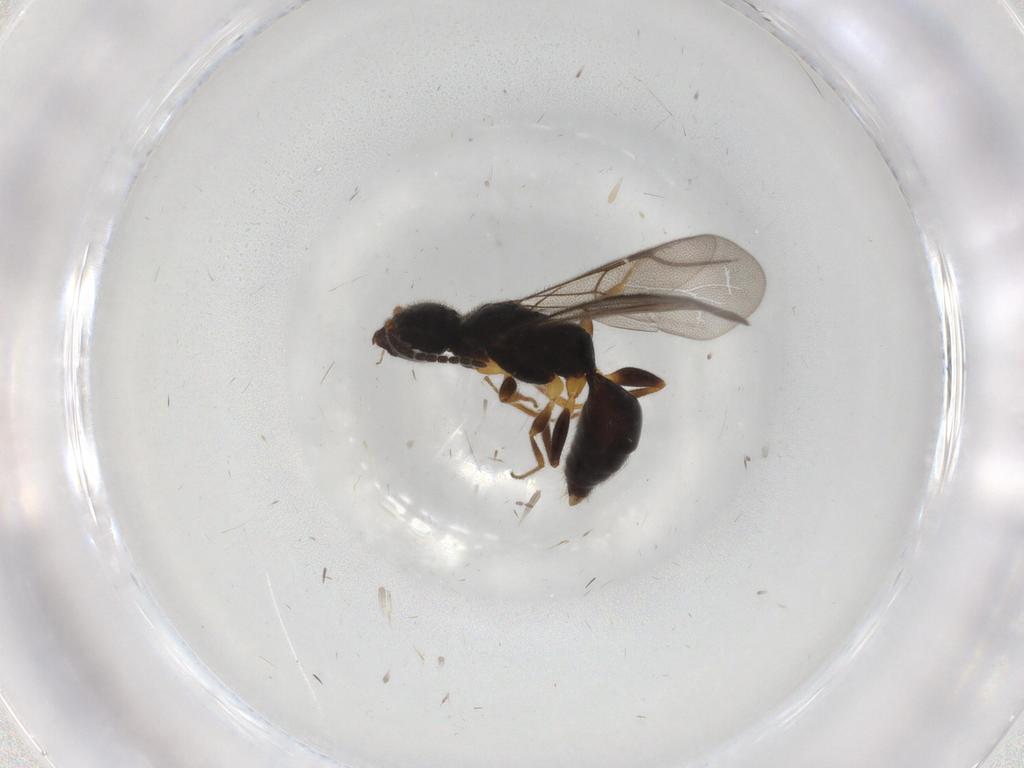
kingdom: Animalia
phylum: Arthropoda
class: Insecta
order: Hymenoptera
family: Bethylidae
